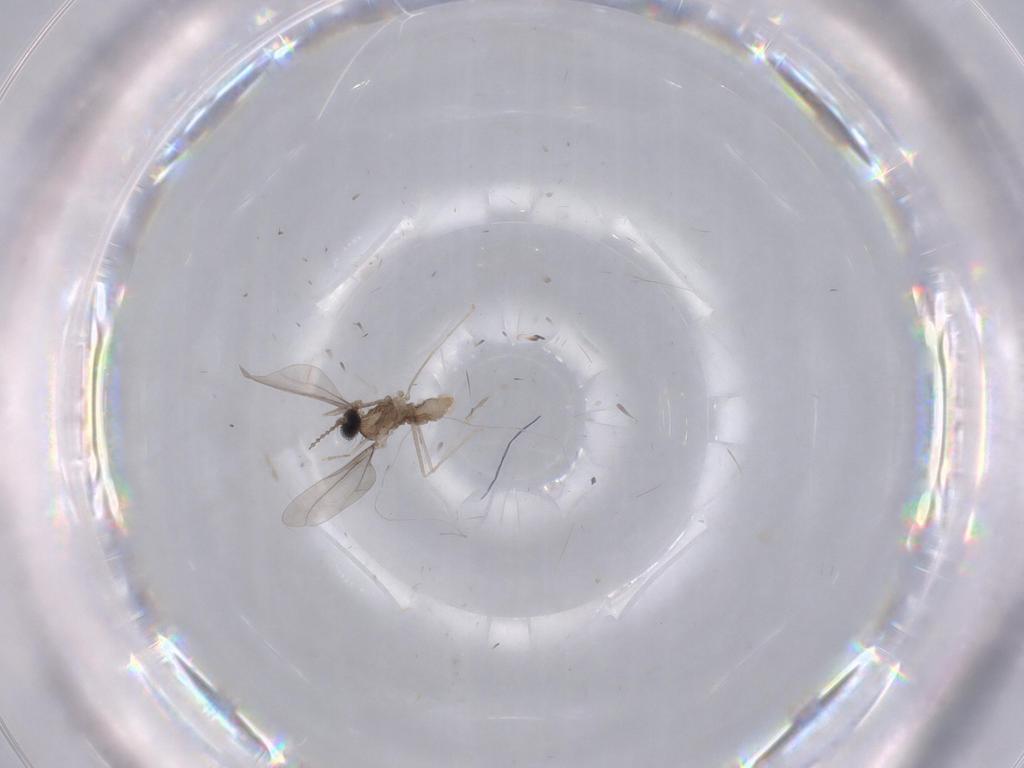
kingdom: Animalia
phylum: Arthropoda
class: Insecta
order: Diptera
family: Cecidomyiidae
